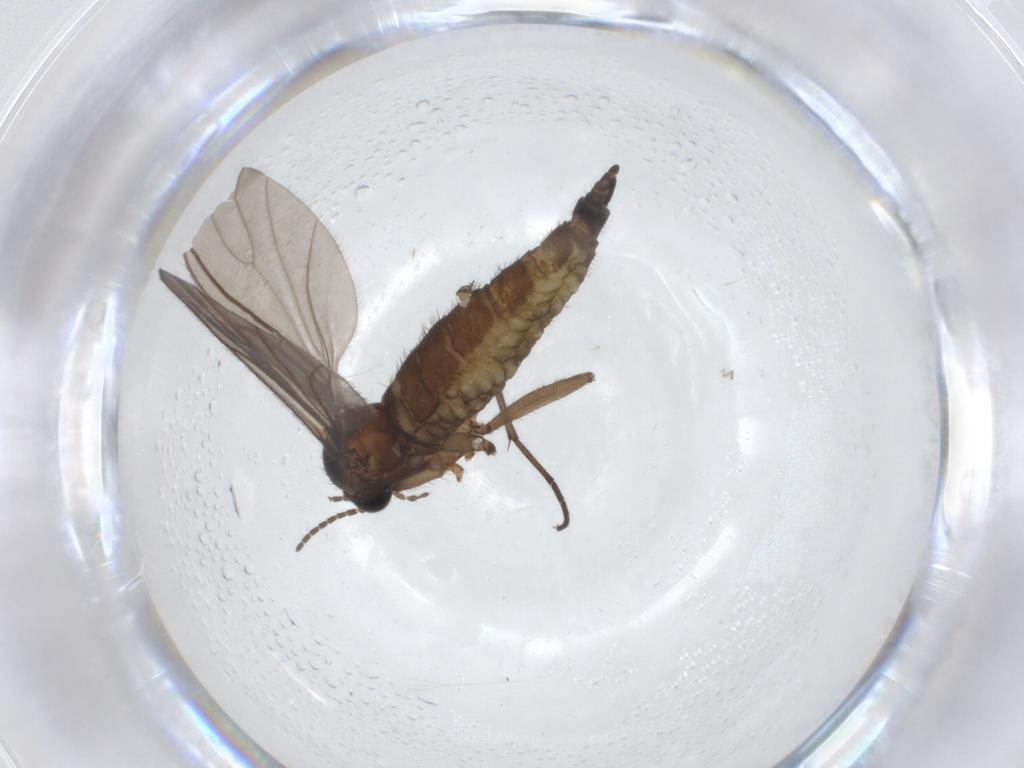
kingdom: Animalia
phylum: Arthropoda
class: Insecta
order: Diptera
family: Sciaridae
